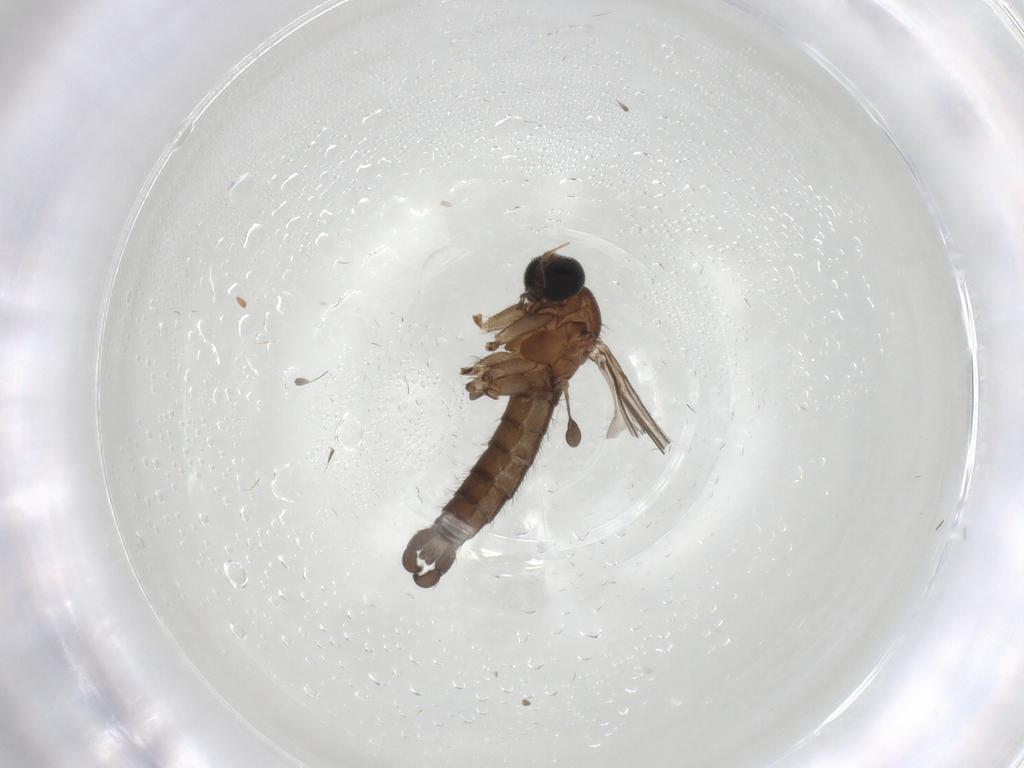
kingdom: Animalia
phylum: Arthropoda
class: Insecta
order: Diptera
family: Sciaridae
